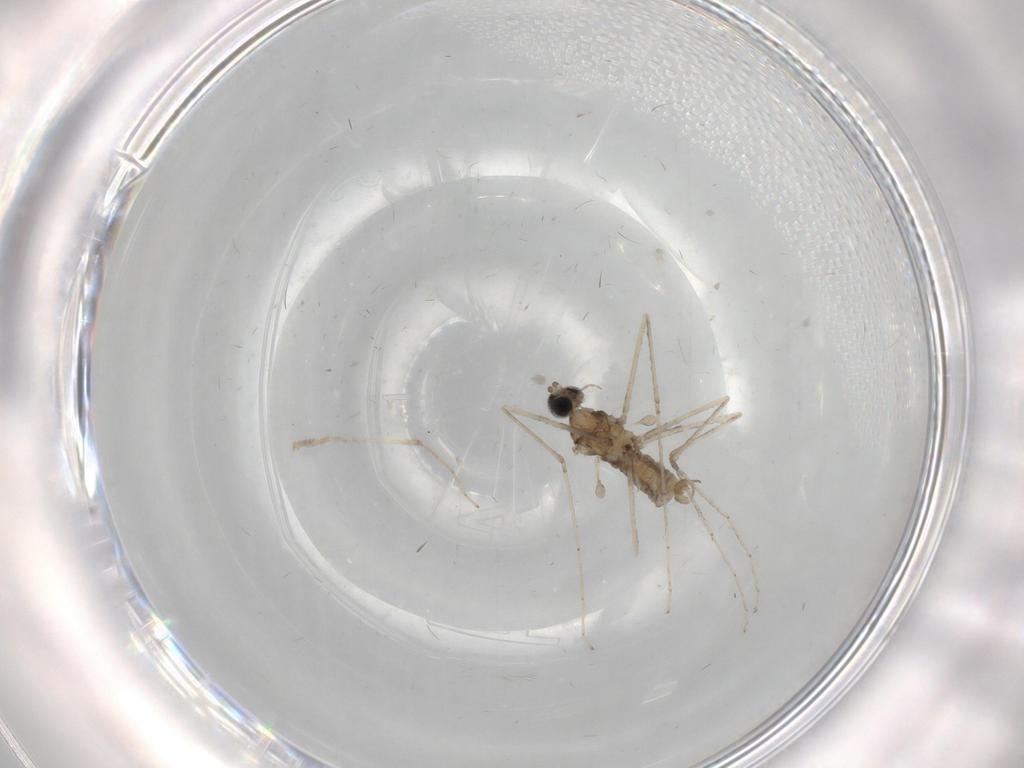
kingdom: Animalia
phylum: Arthropoda
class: Insecta
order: Diptera
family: Cecidomyiidae
